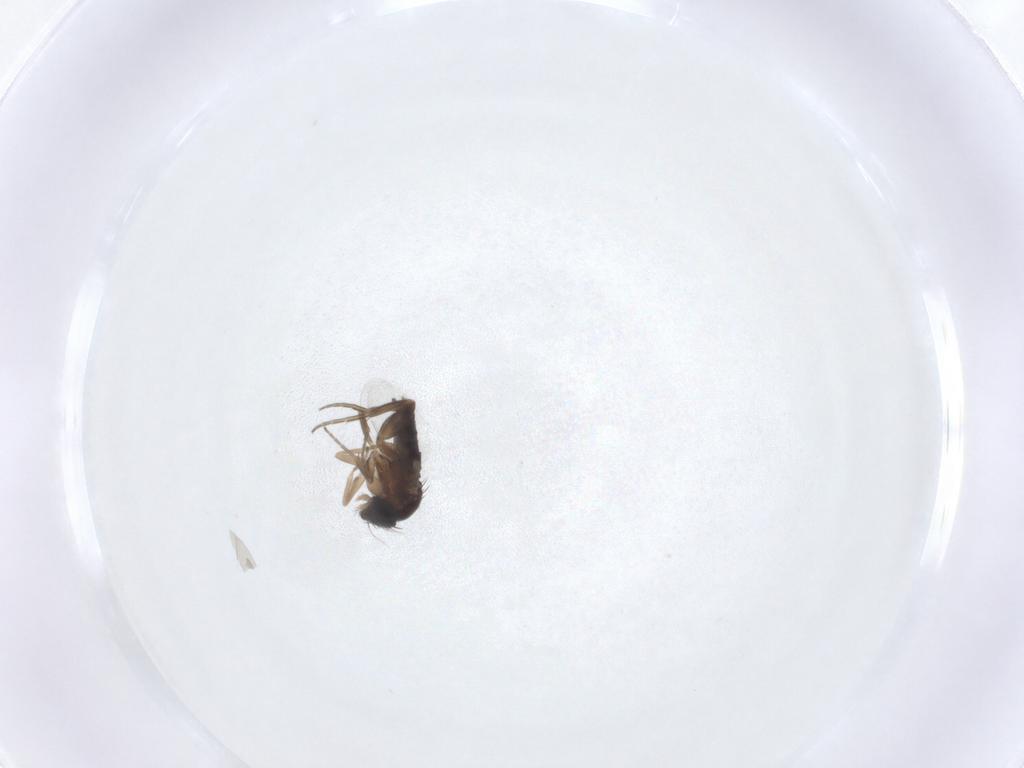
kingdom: Animalia
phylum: Arthropoda
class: Insecta
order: Diptera
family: Phoridae
